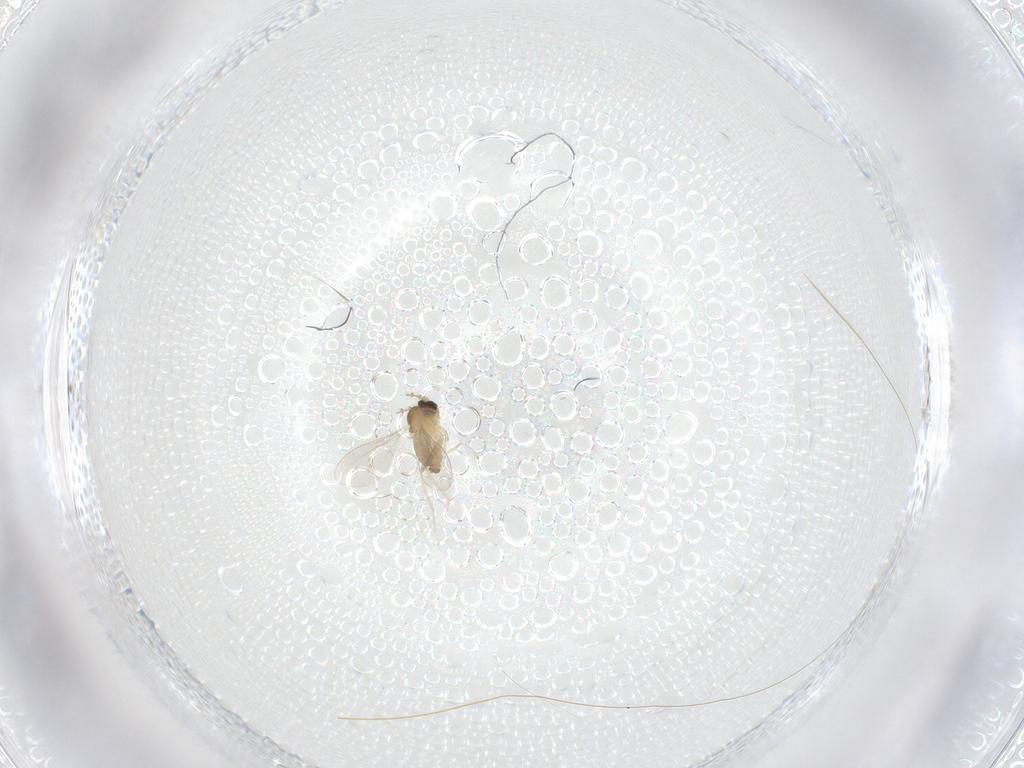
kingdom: Animalia
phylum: Arthropoda
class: Insecta
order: Diptera
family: Cecidomyiidae
